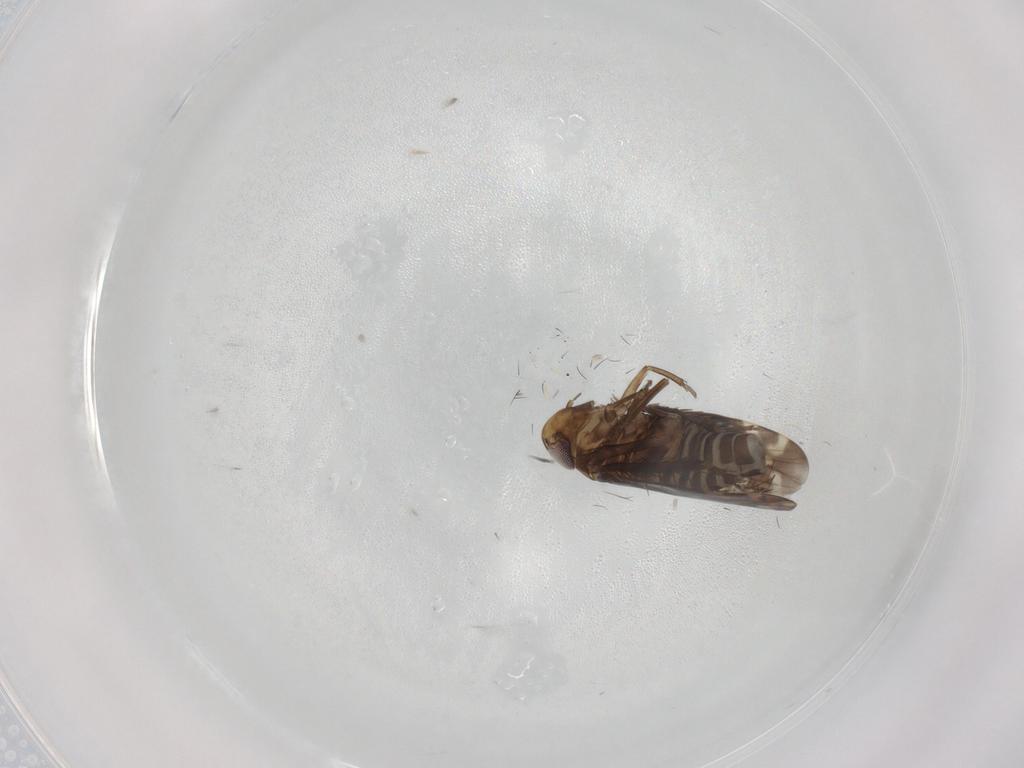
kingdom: Animalia
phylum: Arthropoda
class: Insecta
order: Hemiptera
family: Cicadellidae
